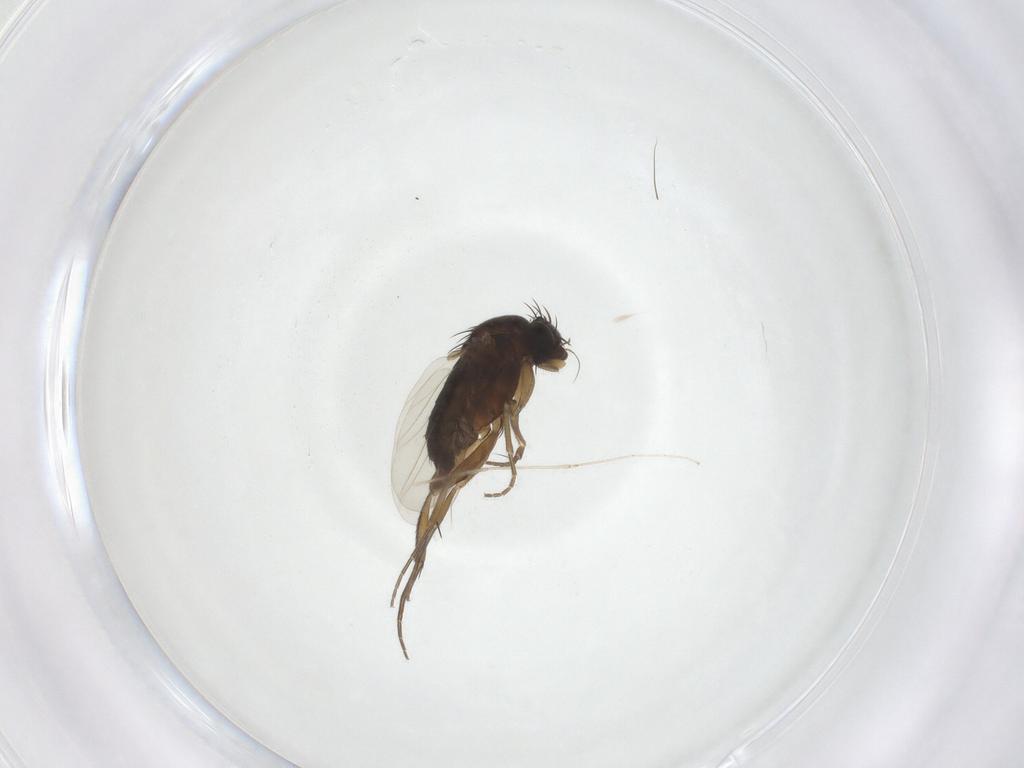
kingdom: Animalia
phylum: Arthropoda
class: Insecta
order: Diptera
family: Phoridae
